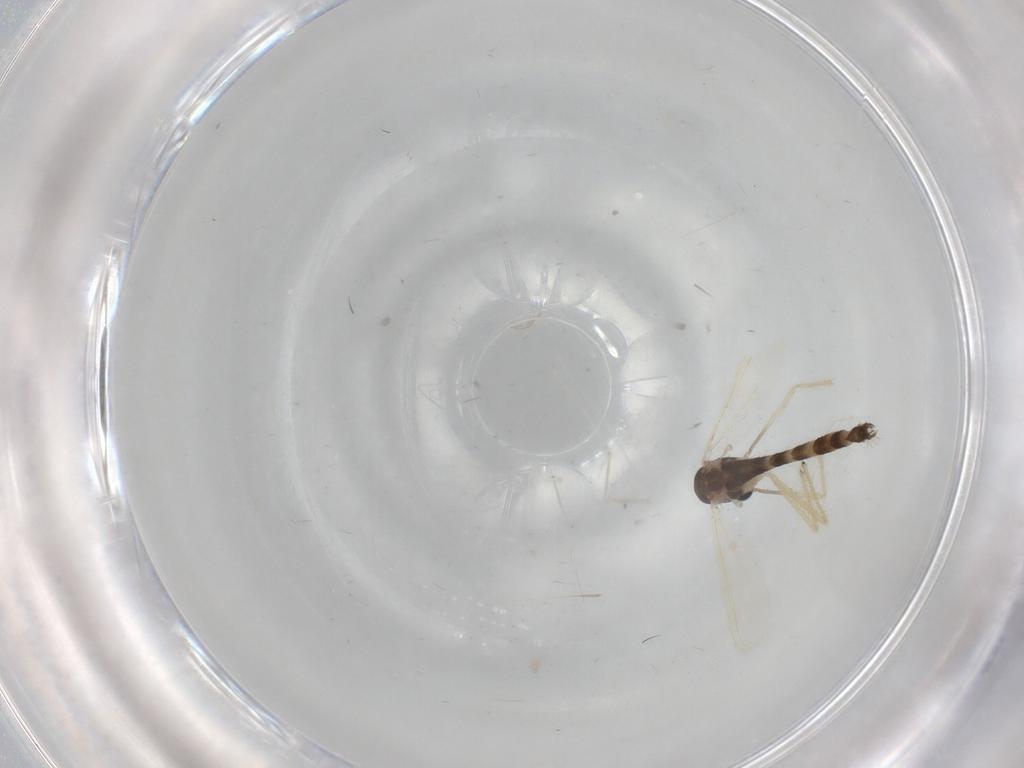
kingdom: Animalia
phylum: Arthropoda
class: Insecta
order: Diptera
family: Chironomidae
